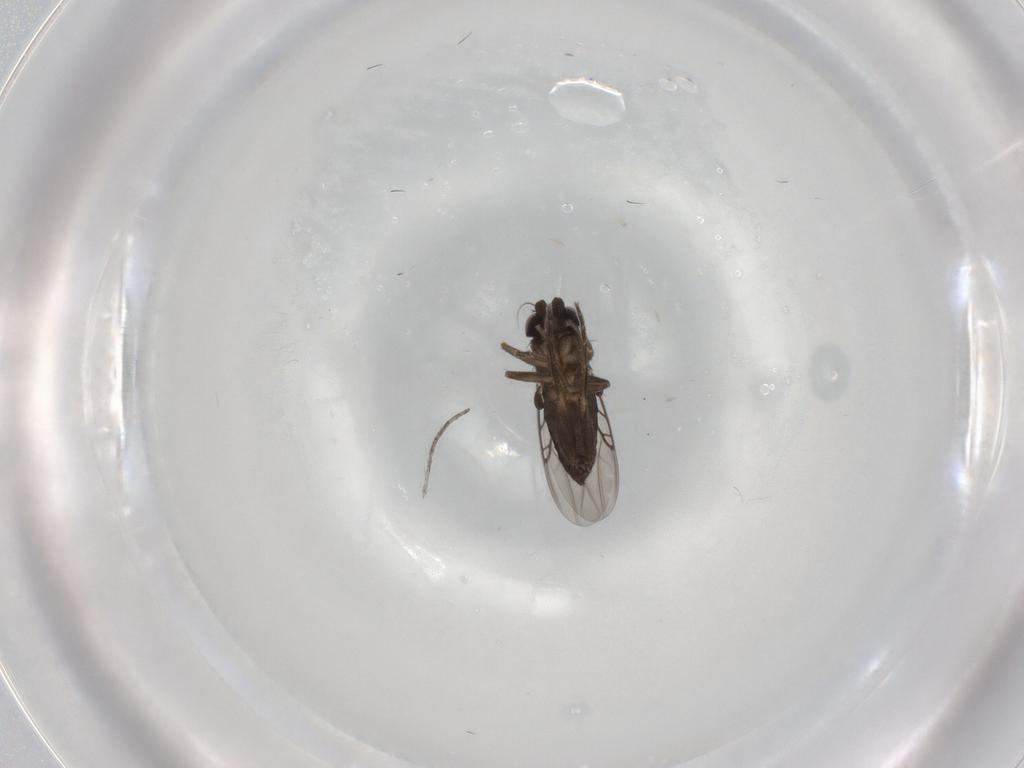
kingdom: Animalia
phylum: Arthropoda
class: Insecta
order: Diptera
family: Phoridae
